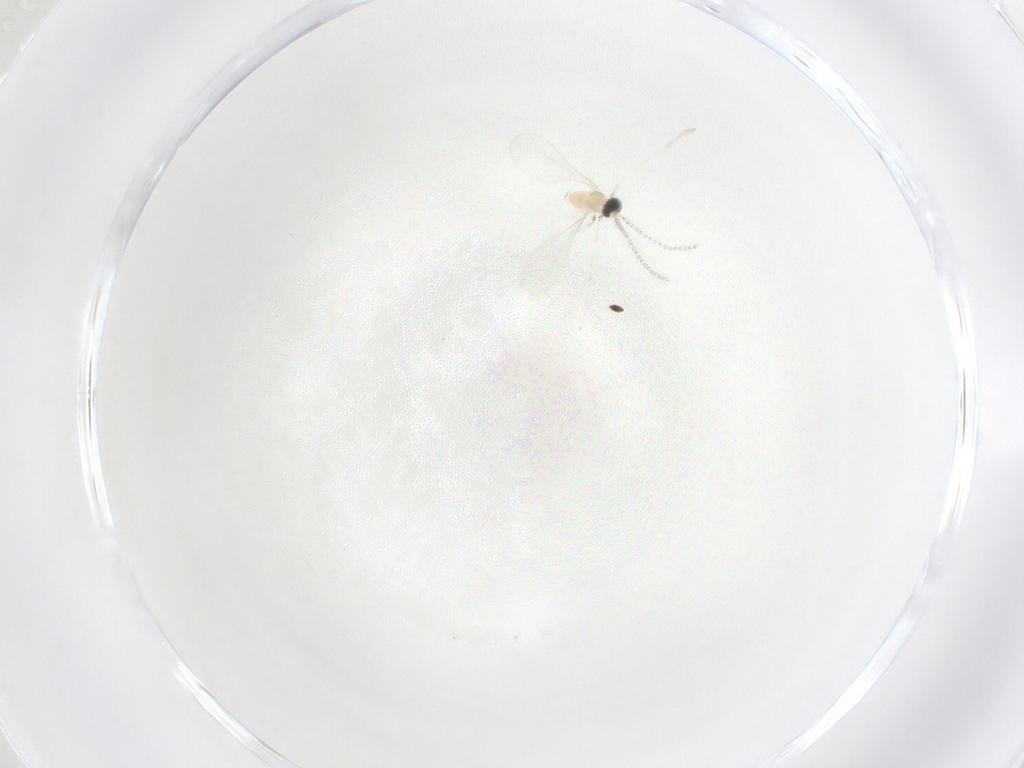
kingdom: Animalia
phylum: Arthropoda
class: Insecta
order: Diptera
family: Cecidomyiidae
